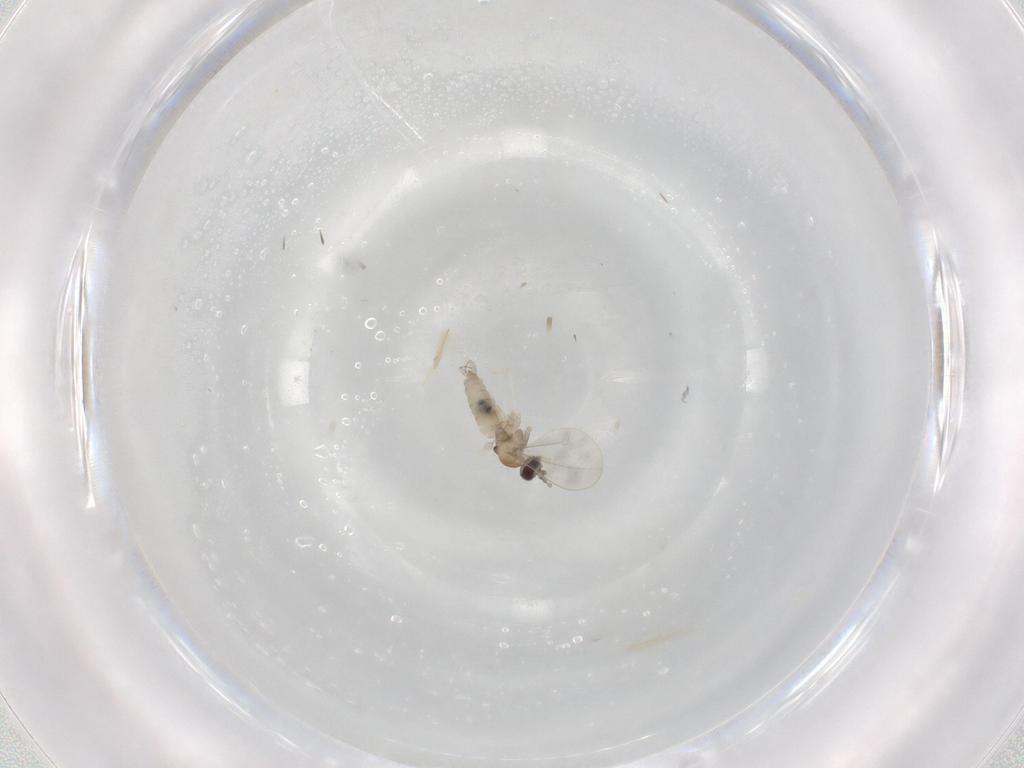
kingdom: Animalia
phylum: Arthropoda
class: Insecta
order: Diptera
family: Cecidomyiidae
